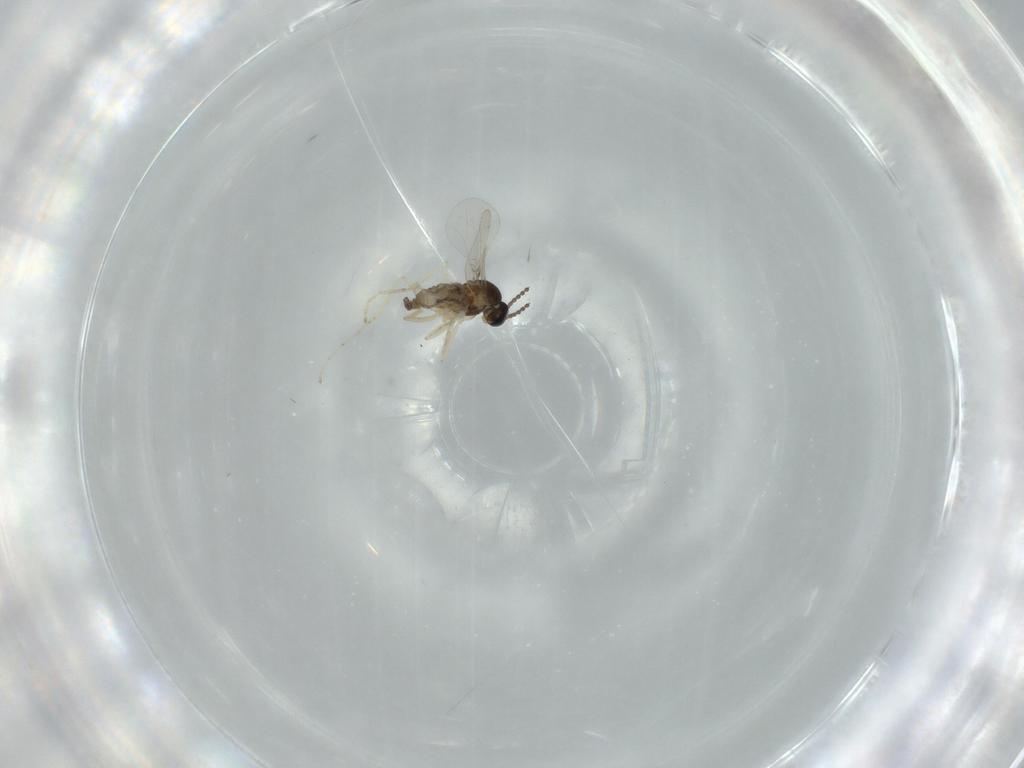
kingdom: Animalia
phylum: Arthropoda
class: Insecta
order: Diptera
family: Cecidomyiidae
